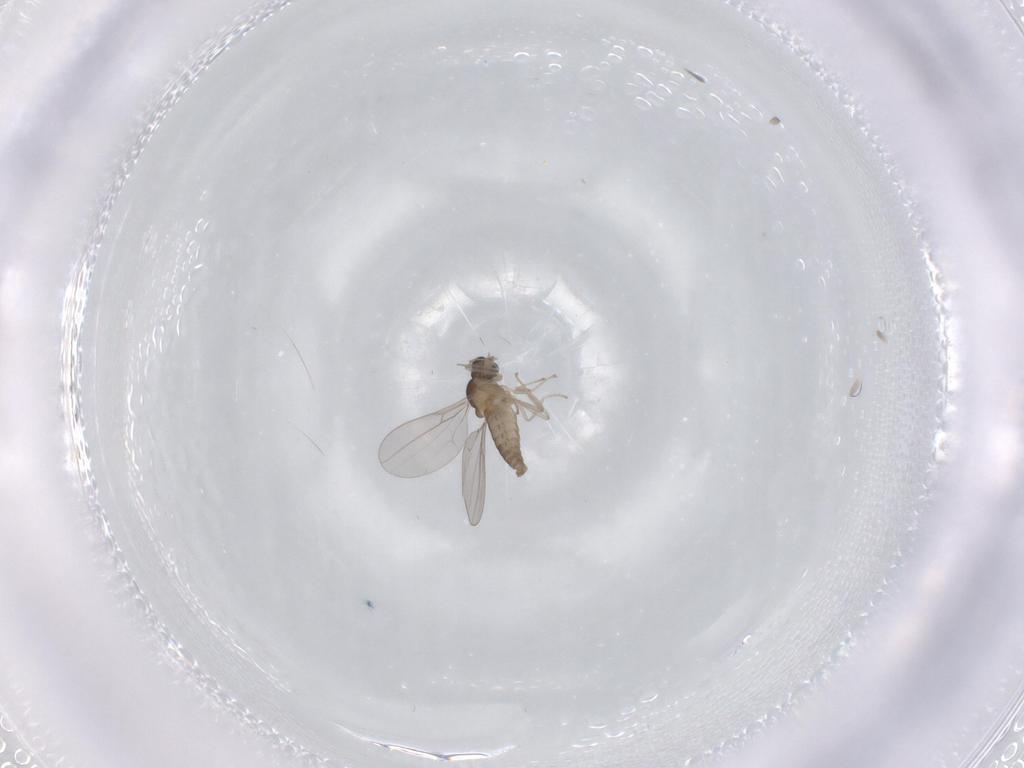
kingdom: Animalia
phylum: Arthropoda
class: Insecta
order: Diptera
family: Cecidomyiidae
